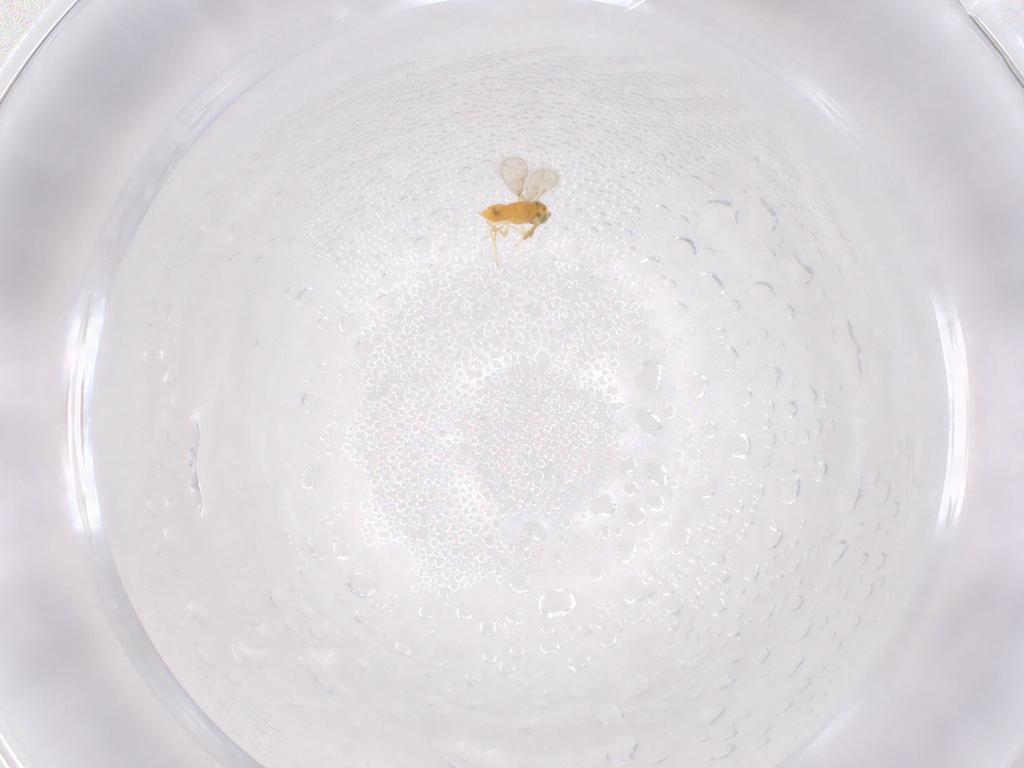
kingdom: Animalia
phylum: Arthropoda
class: Insecta
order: Hymenoptera
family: Aphelinidae
